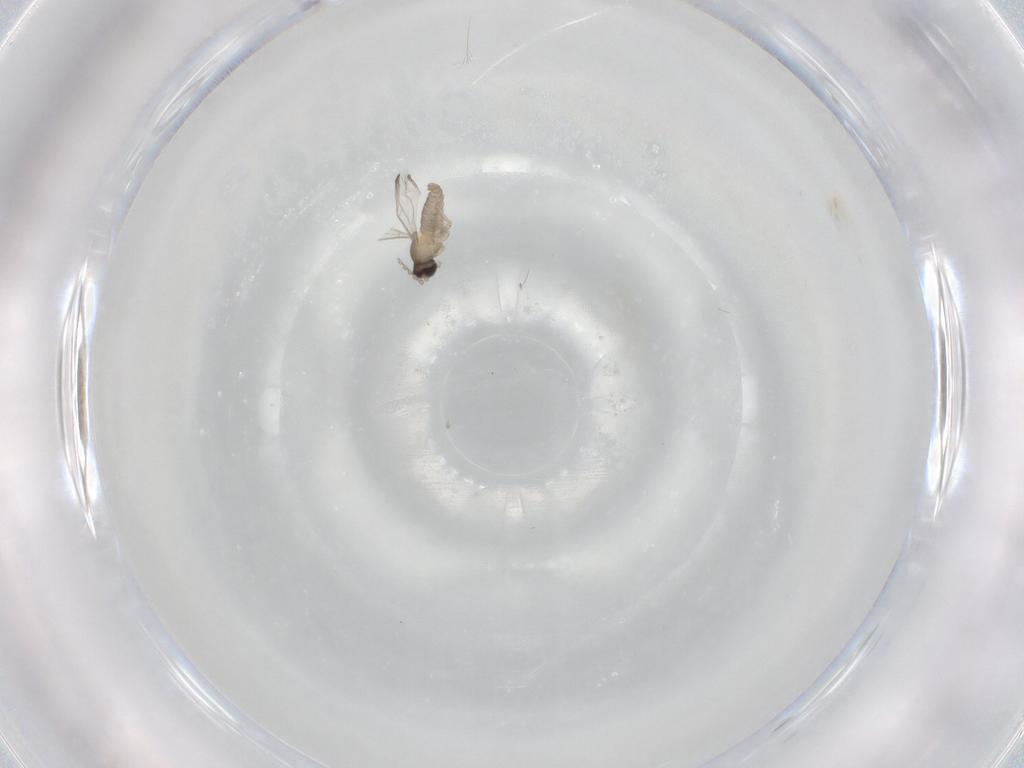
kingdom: Animalia
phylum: Arthropoda
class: Insecta
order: Diptera
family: Cecidomyiidae
